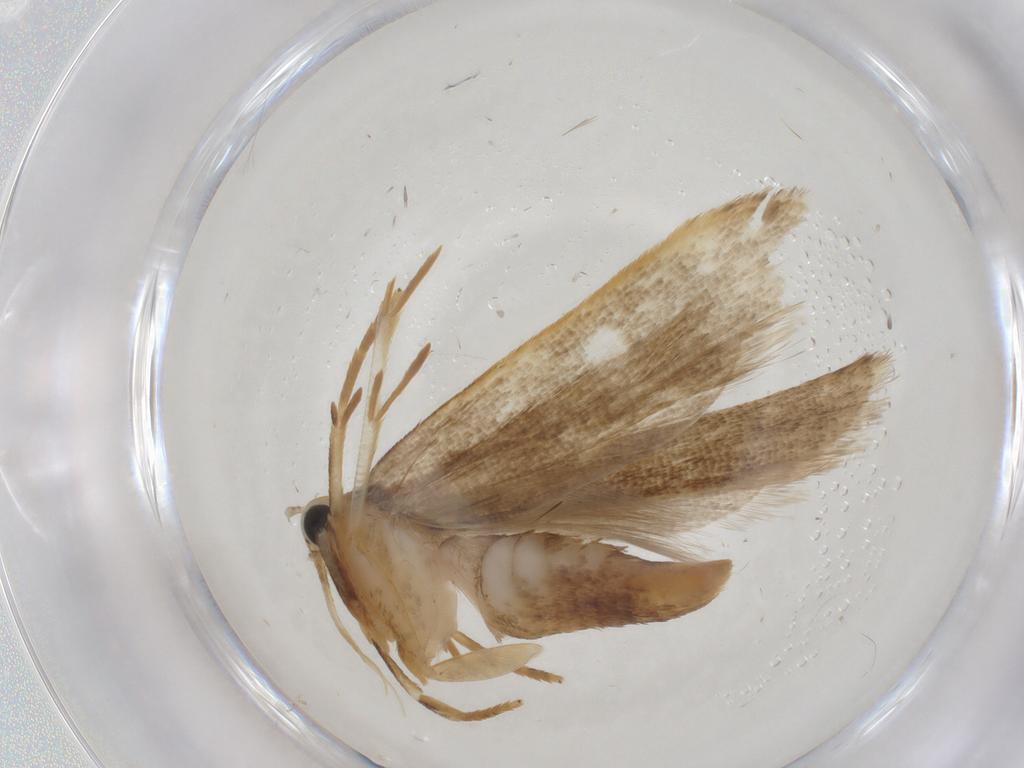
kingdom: Animalia
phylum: Arthropoda
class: Insecta
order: Lepidoptera
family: Gelechiidae
